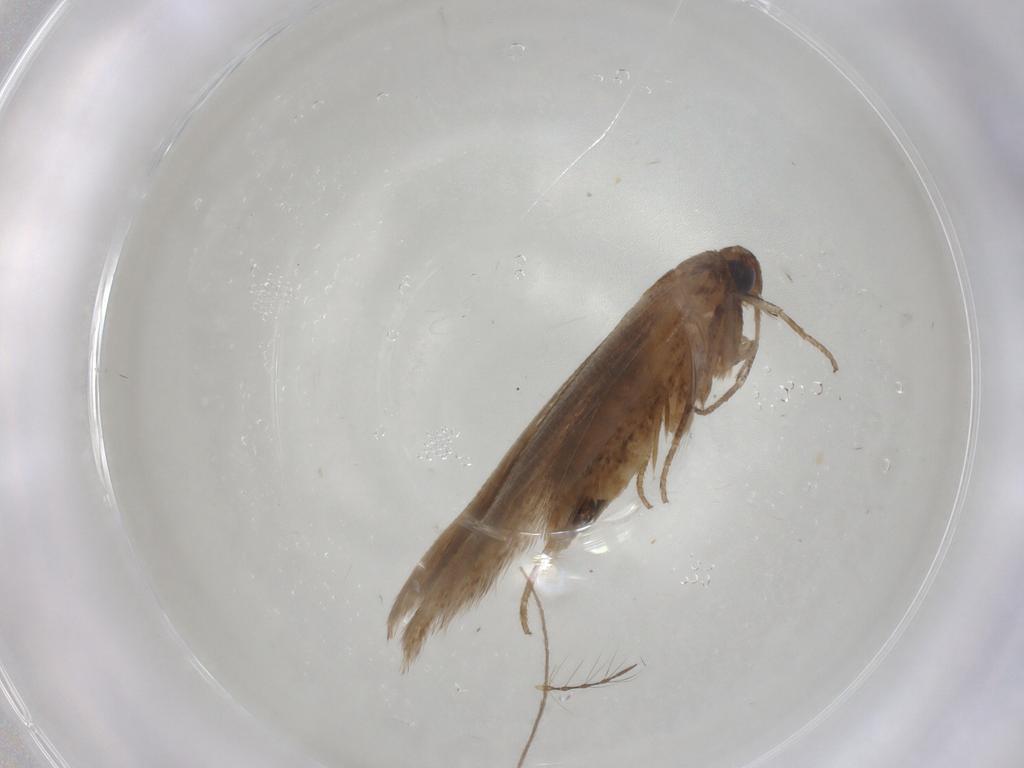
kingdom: Animalia
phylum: Arthropoda
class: Insecta
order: Lepidoptera
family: Cosmopterigidae
